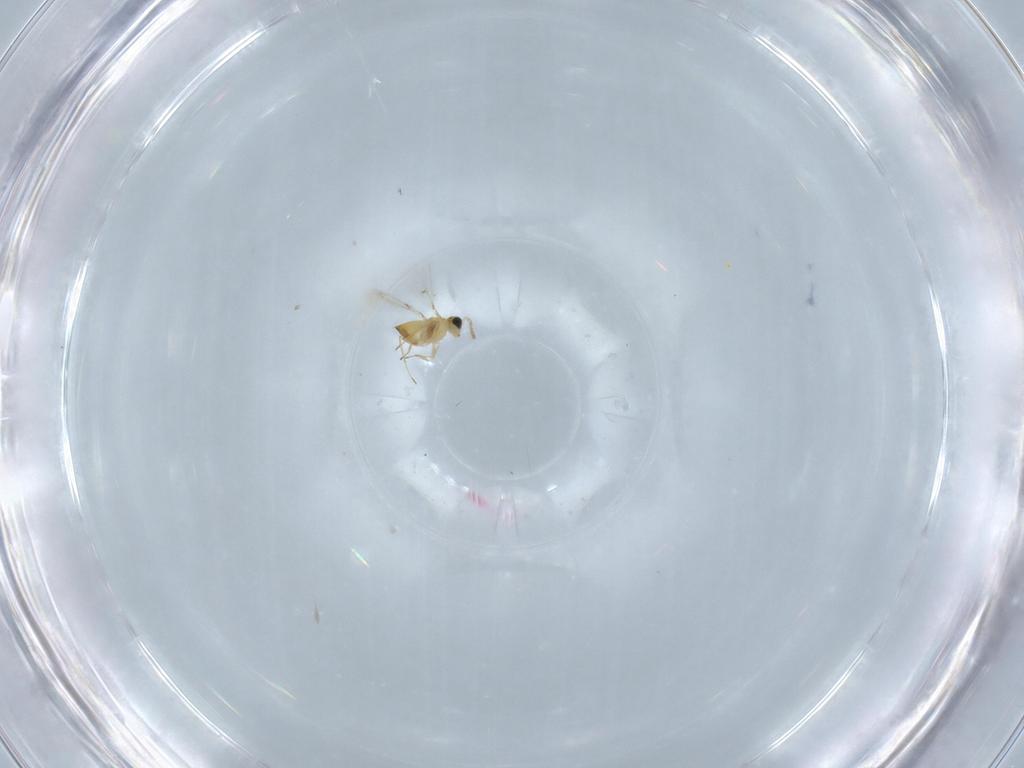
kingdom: Animalia
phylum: Arthropoda
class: Insecta
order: Hymenoptera
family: Trichogrammatidae
